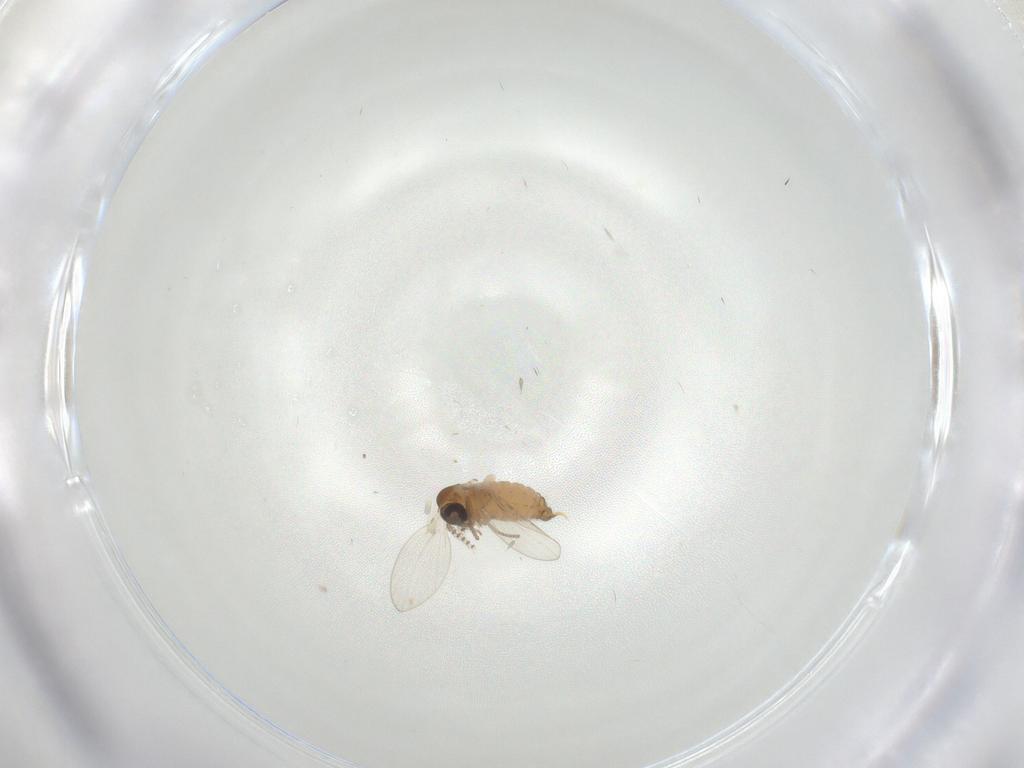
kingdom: Animalia
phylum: Arthropoda
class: Insecta
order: Diptera
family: Psychodidae
